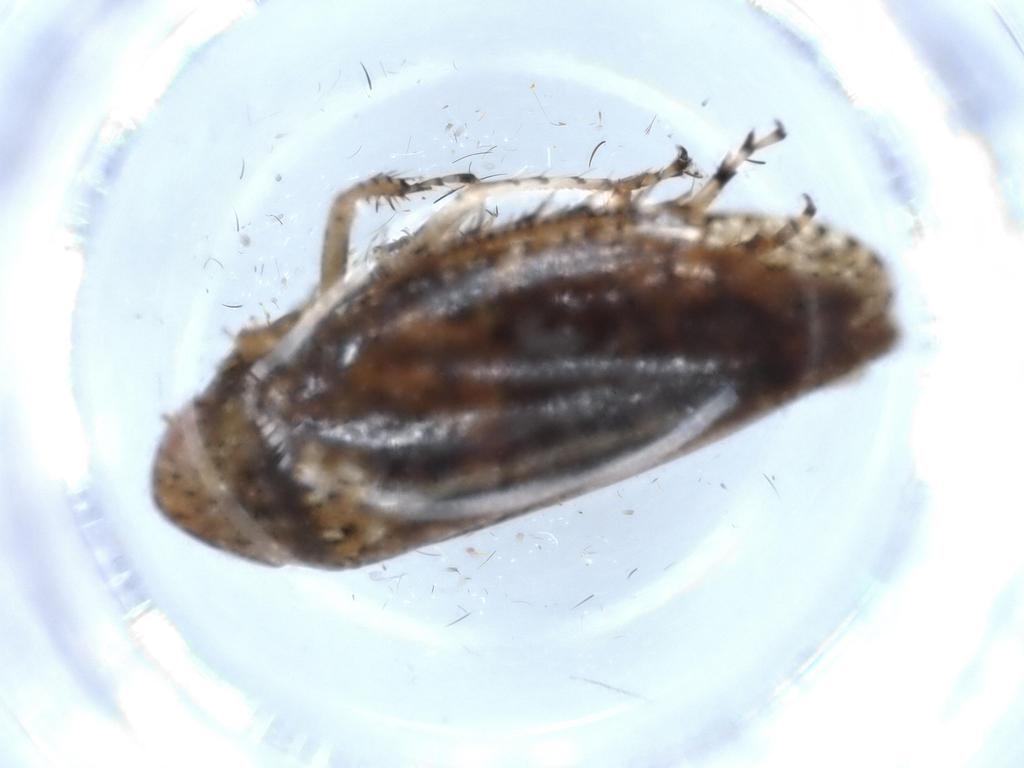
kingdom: Animalia
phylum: Arthropoda
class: Insecta
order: Hemiptera
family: Cicadellidae
